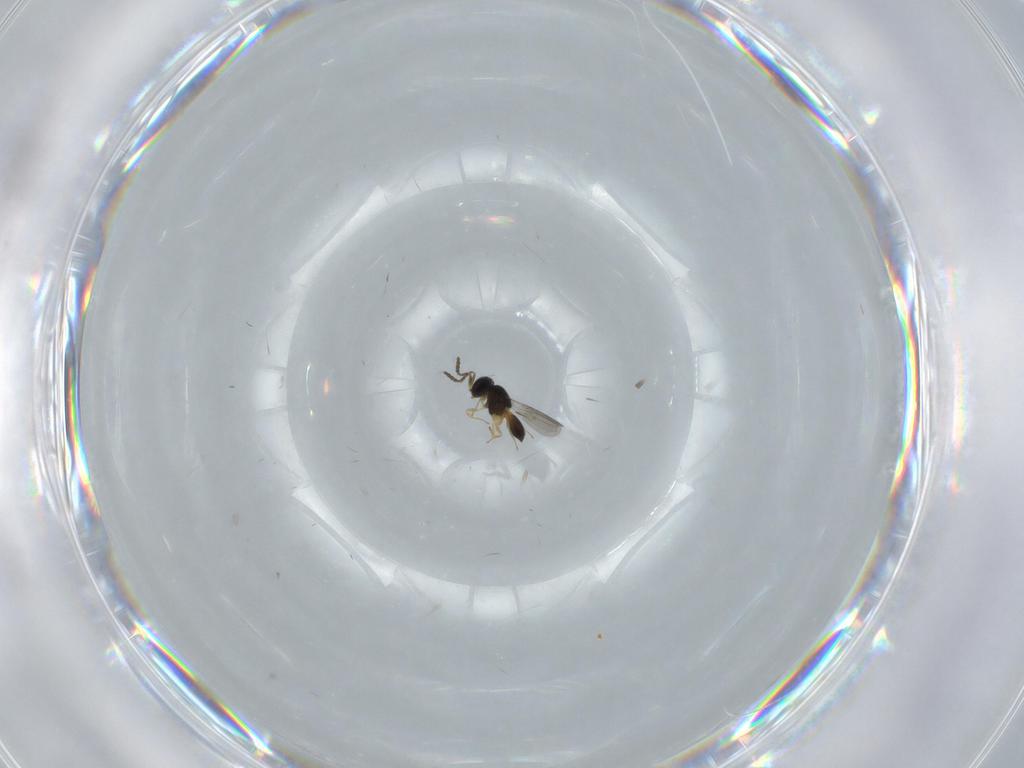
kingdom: Animalia
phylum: Arthropoda
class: Insecta
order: Hymenoptera
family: Scelionidae
